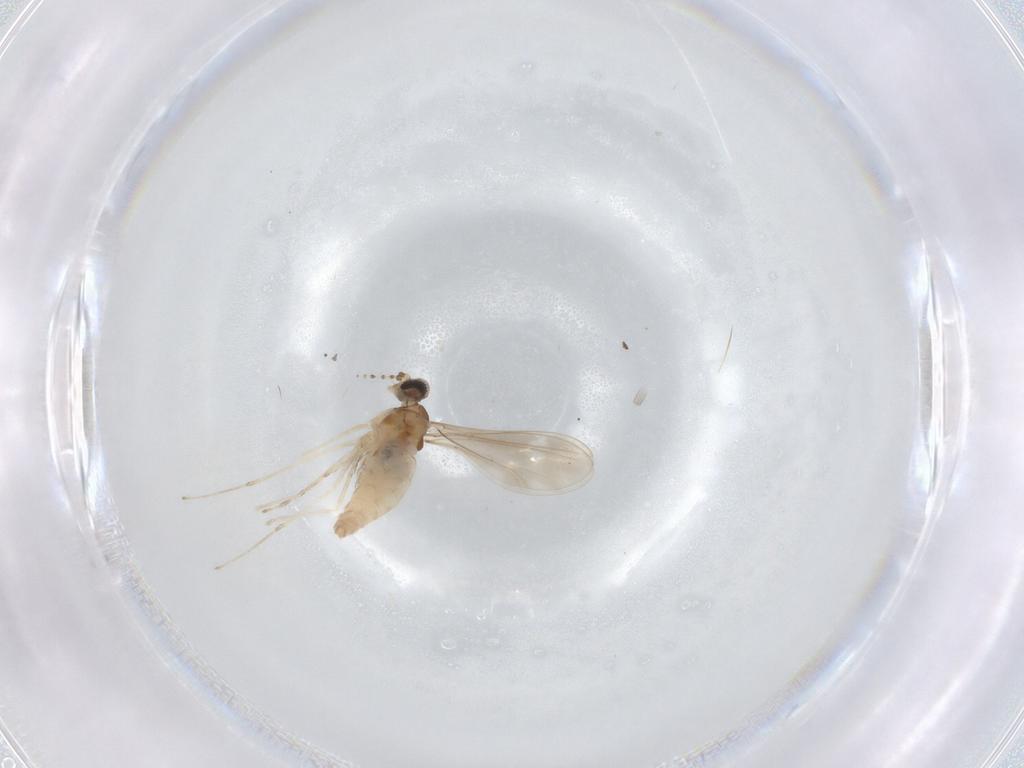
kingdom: Animalia
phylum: Arthropoda
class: Insecta
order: Diptera
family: Cecidomyiidae
